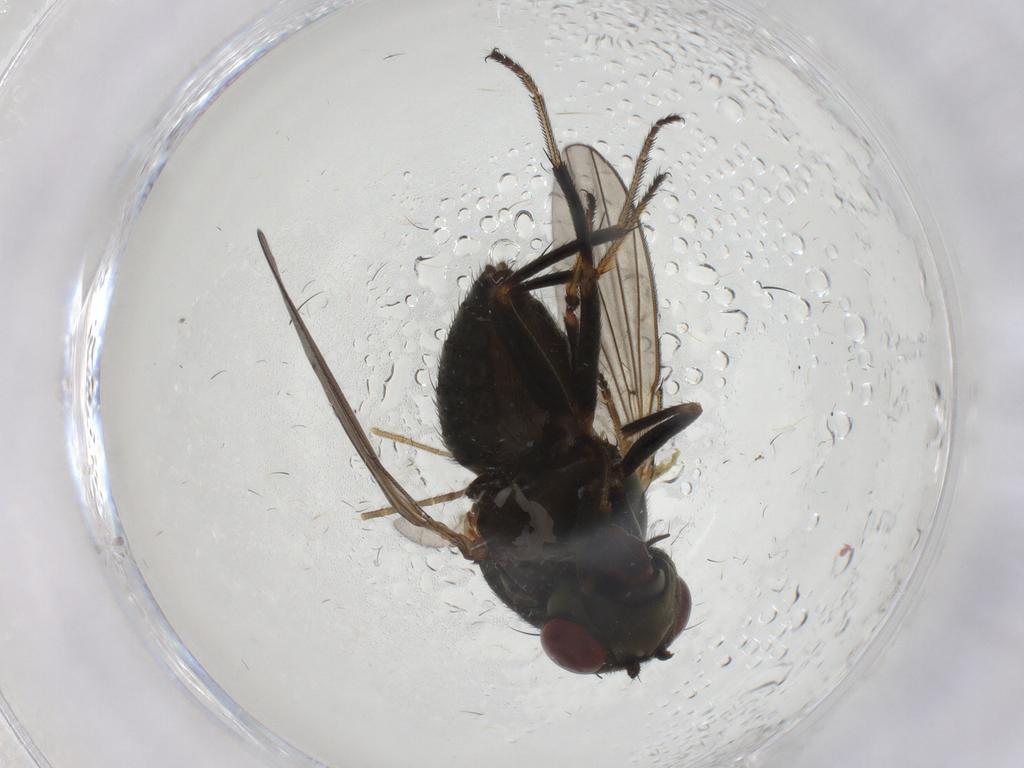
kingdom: Animalia
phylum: Arthropoda
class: Insecta
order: Diptera
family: Ephydridae
